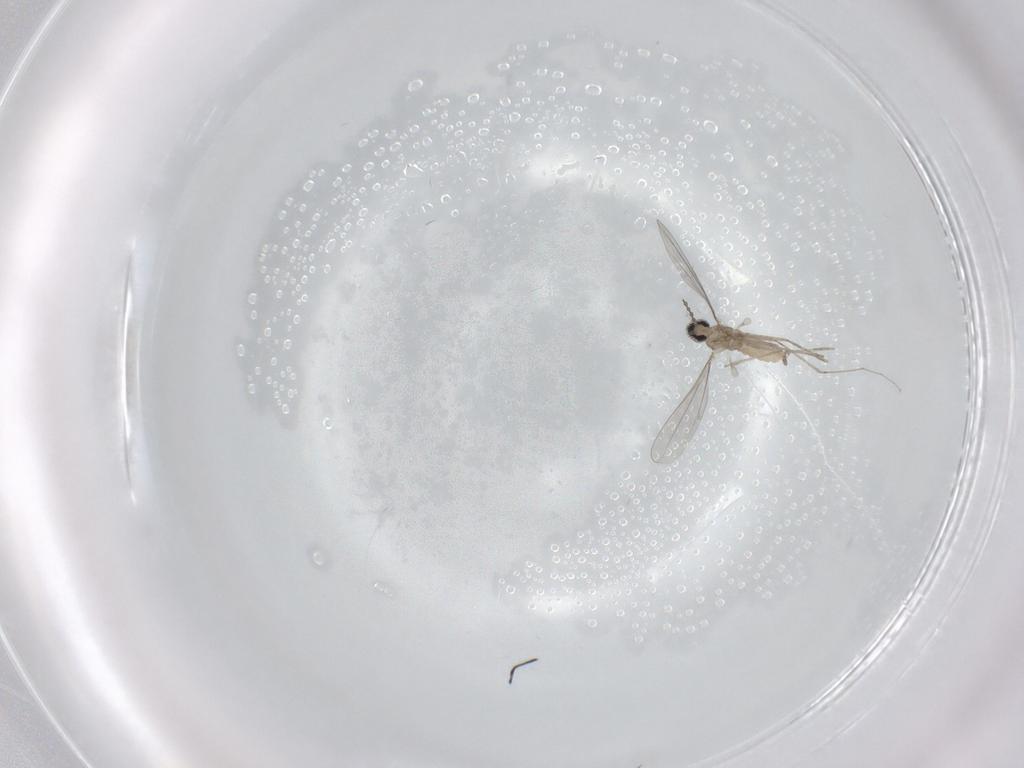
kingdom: Animalia
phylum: Arthropoda
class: Insecta
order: Diptera
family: Cecidomyiidae
